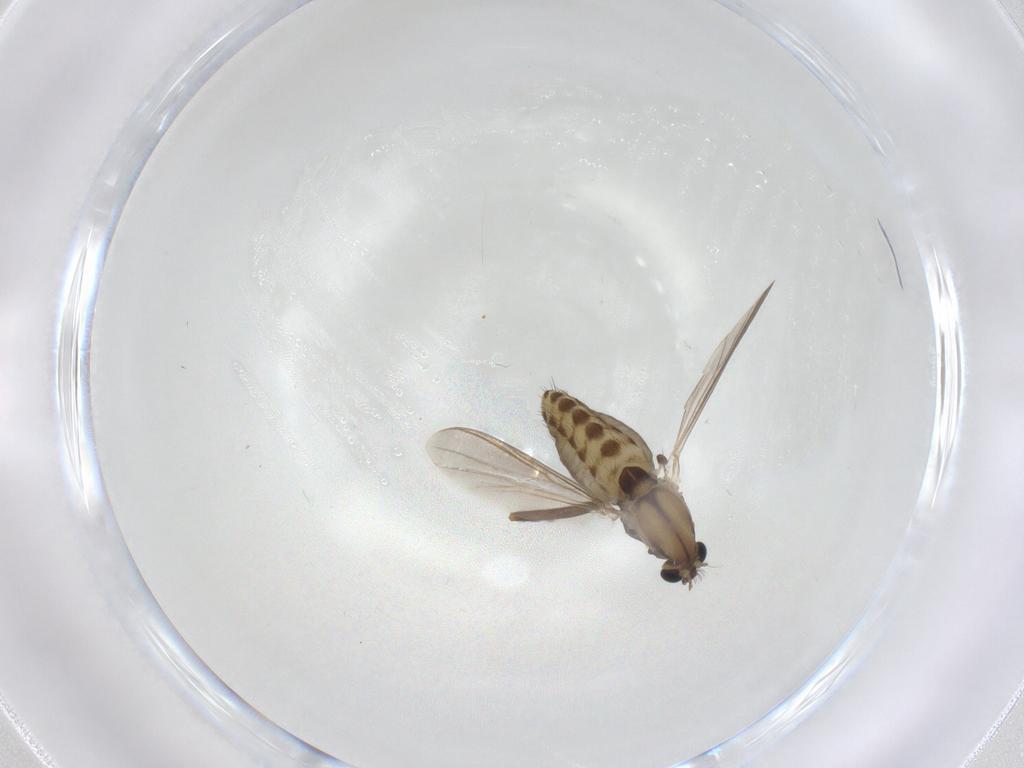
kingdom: Animalia
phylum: Arthropoda
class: Insecta
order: Diptera
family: Chironomidae
